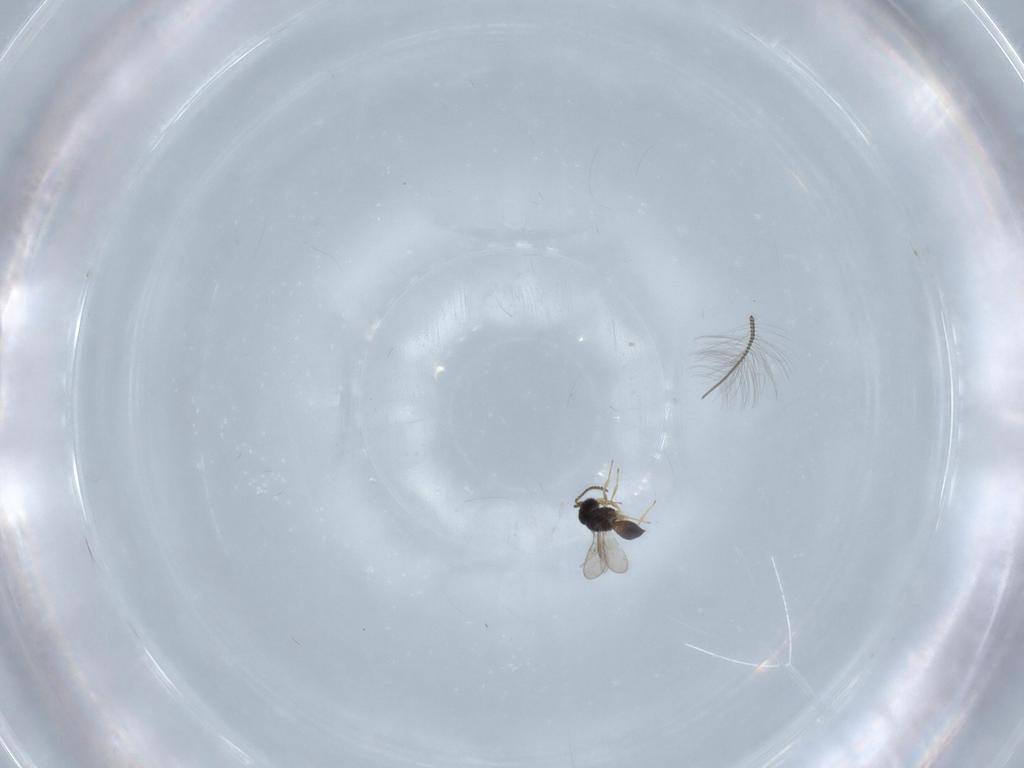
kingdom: Animalia
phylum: Arthropoda
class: Insecta
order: Hymenoptera
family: Scelionidae
